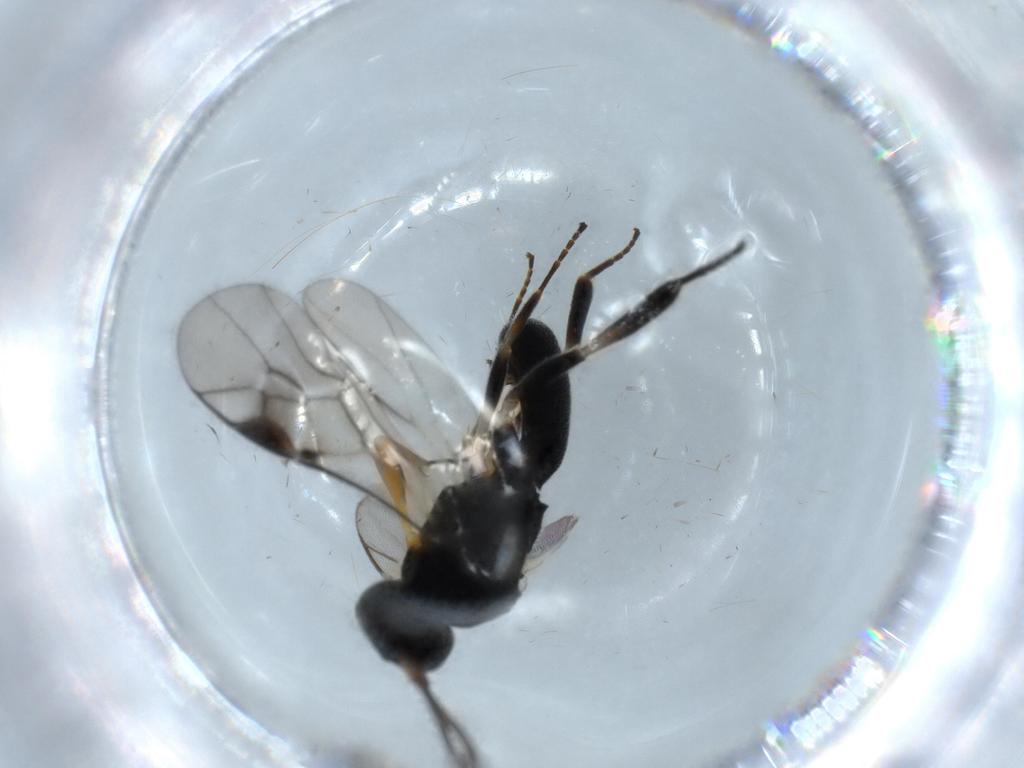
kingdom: Animalia
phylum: Arthropoda
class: Insecta
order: Hymenoptera
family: Braconidae
